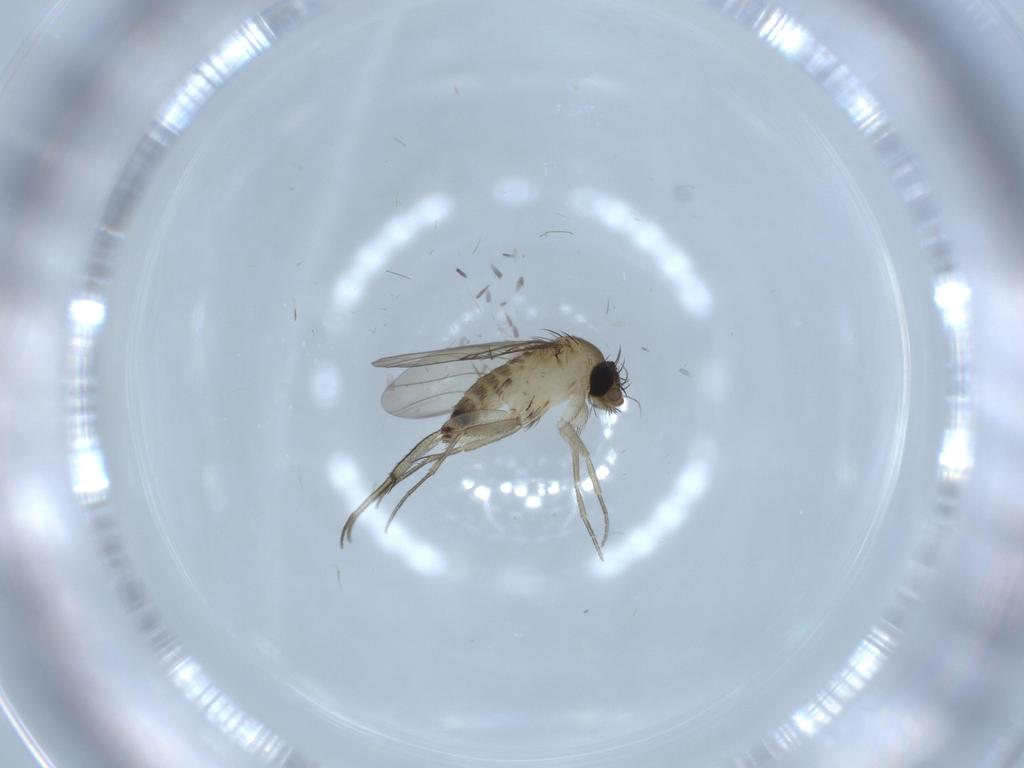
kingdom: Animalia
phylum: Arthropoda
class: Insecta
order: Diptera
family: Phoridae
